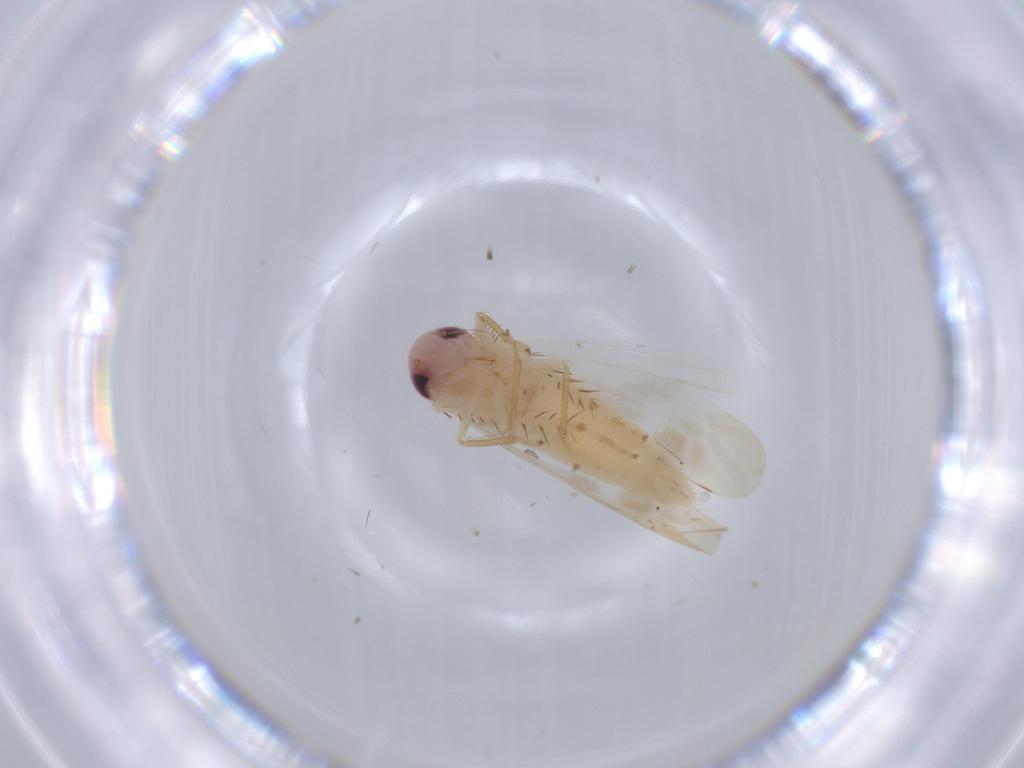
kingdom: Animalia
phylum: Arthropoda
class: Insecta
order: Hemiptera
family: Cicadellidae
